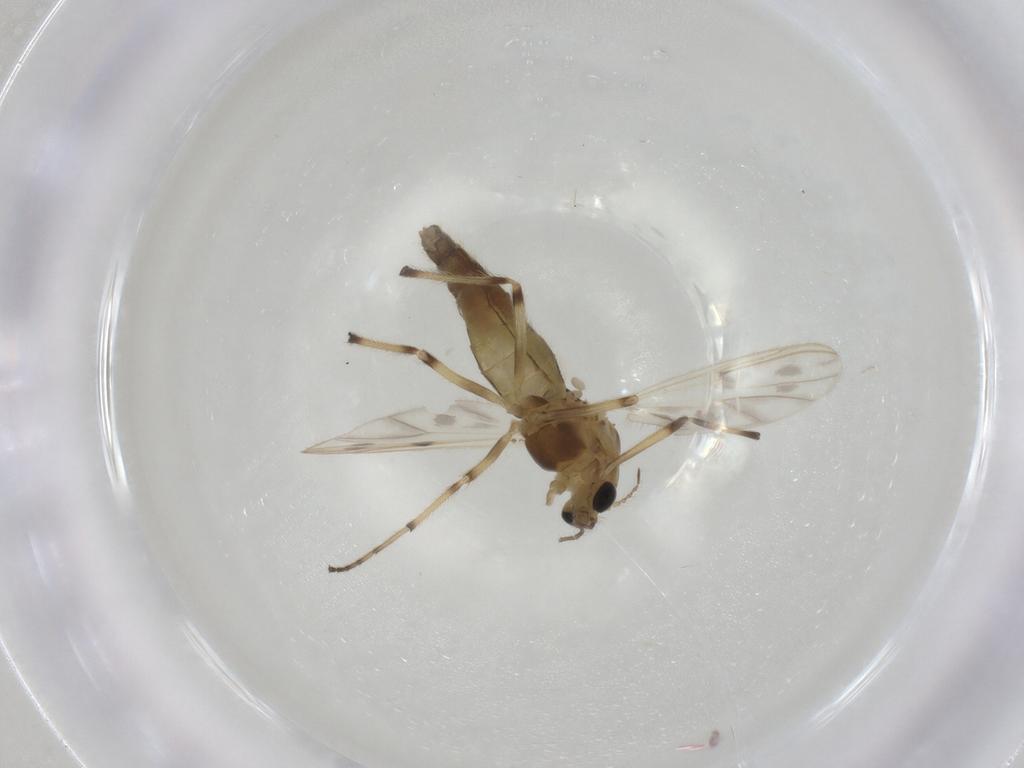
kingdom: Animalia
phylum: Arthropoda
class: Insecta
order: Diptera
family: Chironomidae
